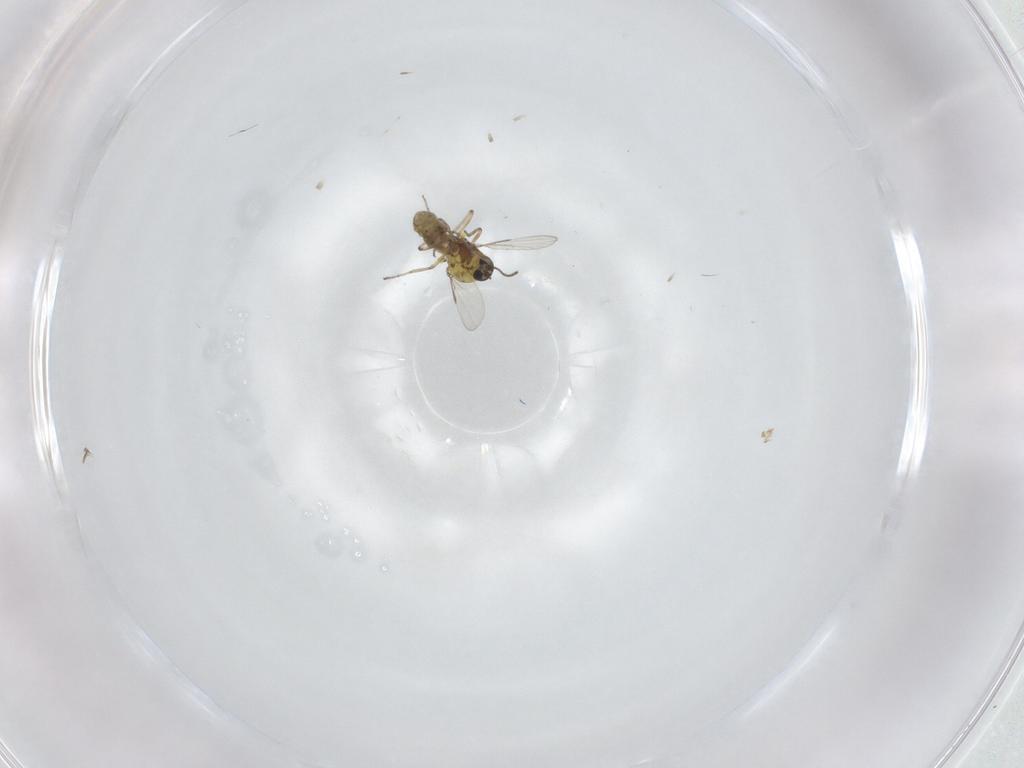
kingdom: Animalia
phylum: Arthropoda
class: Insecta
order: Diptera
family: Ceratopogonidae
